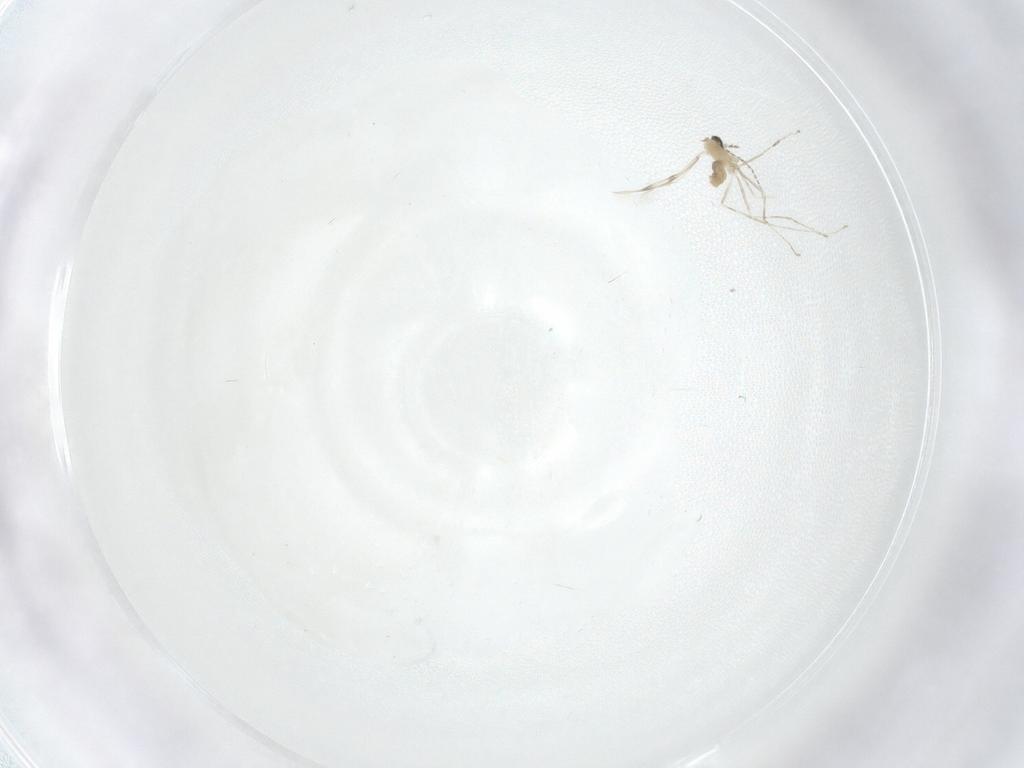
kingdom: Animalia
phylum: Arthropoda
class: Insecta
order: Diptera
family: Cecidomyiidae
